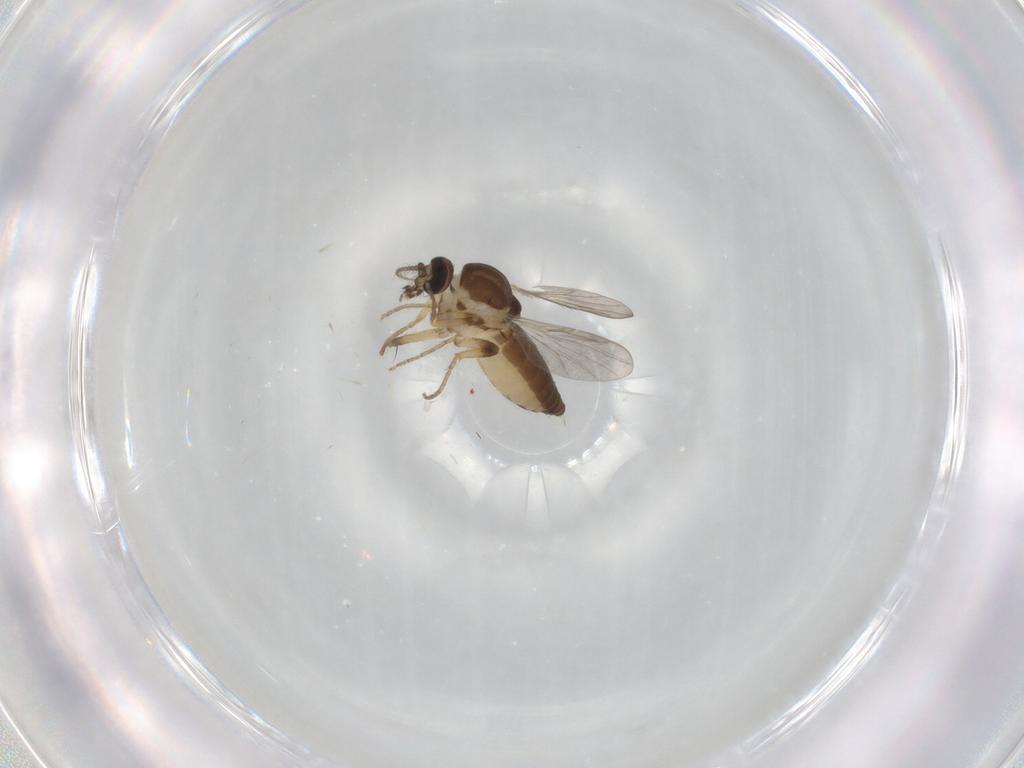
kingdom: Animalia
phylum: Arthropoda
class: Insecta
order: Diptera
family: Ceratopogonidae
